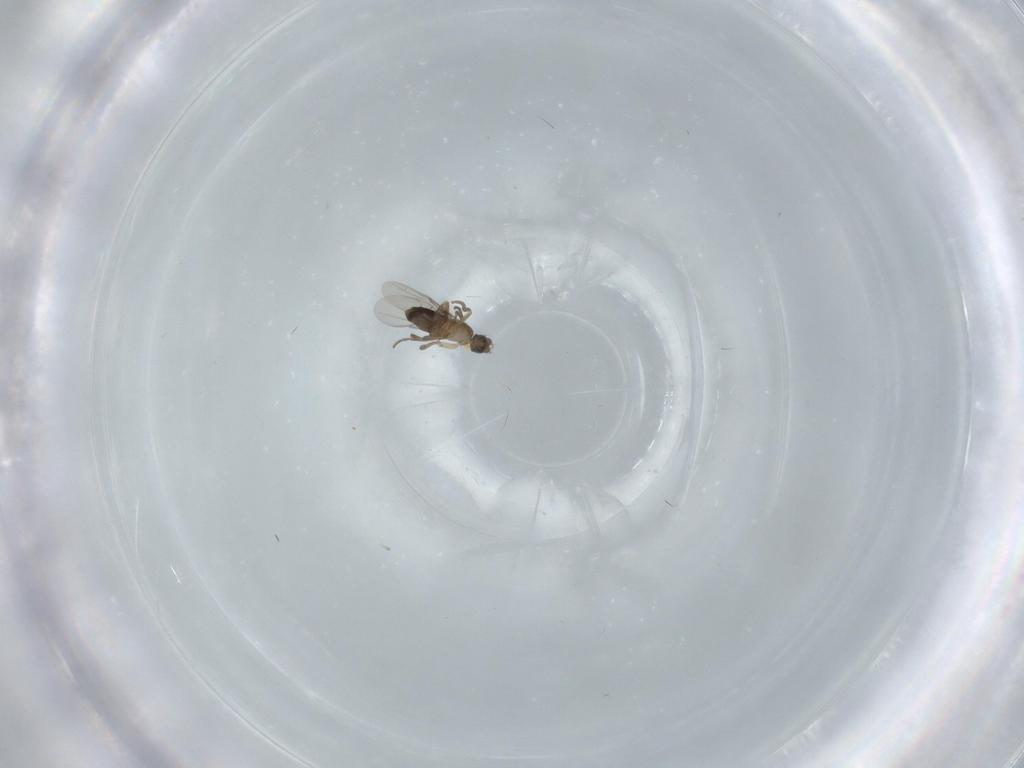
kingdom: Animalia
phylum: Arthropoda
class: Insecta
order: Diptera
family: Phoridae
